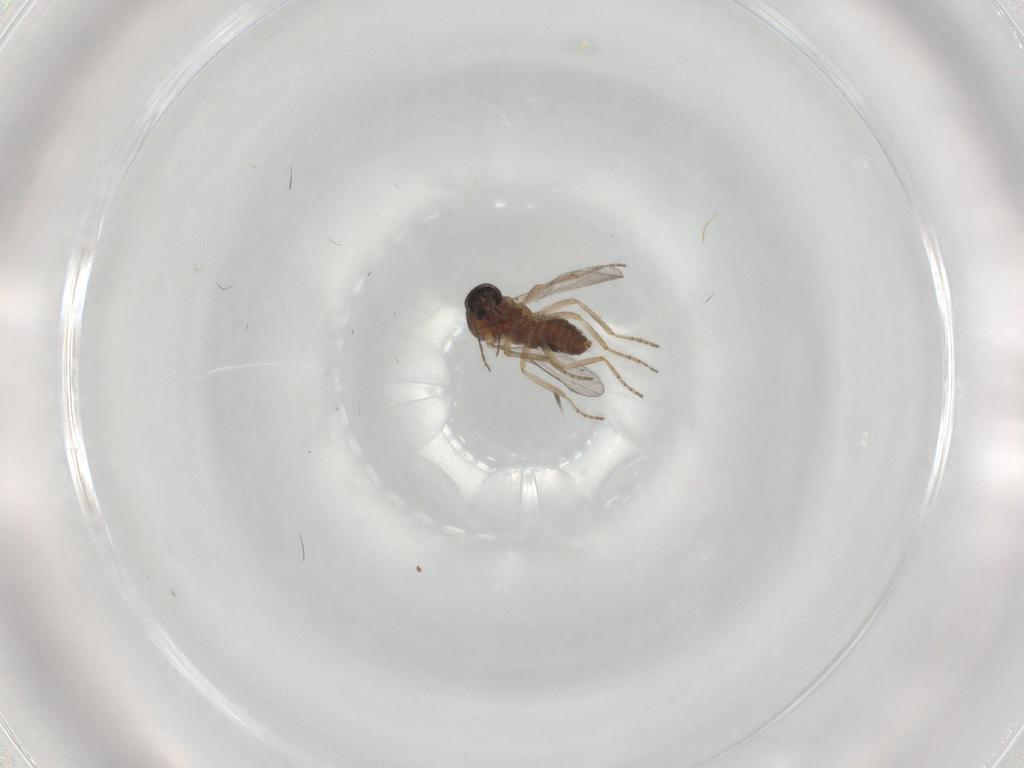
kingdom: Animalia
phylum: Arthropoda
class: Insecta
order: Diptera
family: Ceratopogonidae
